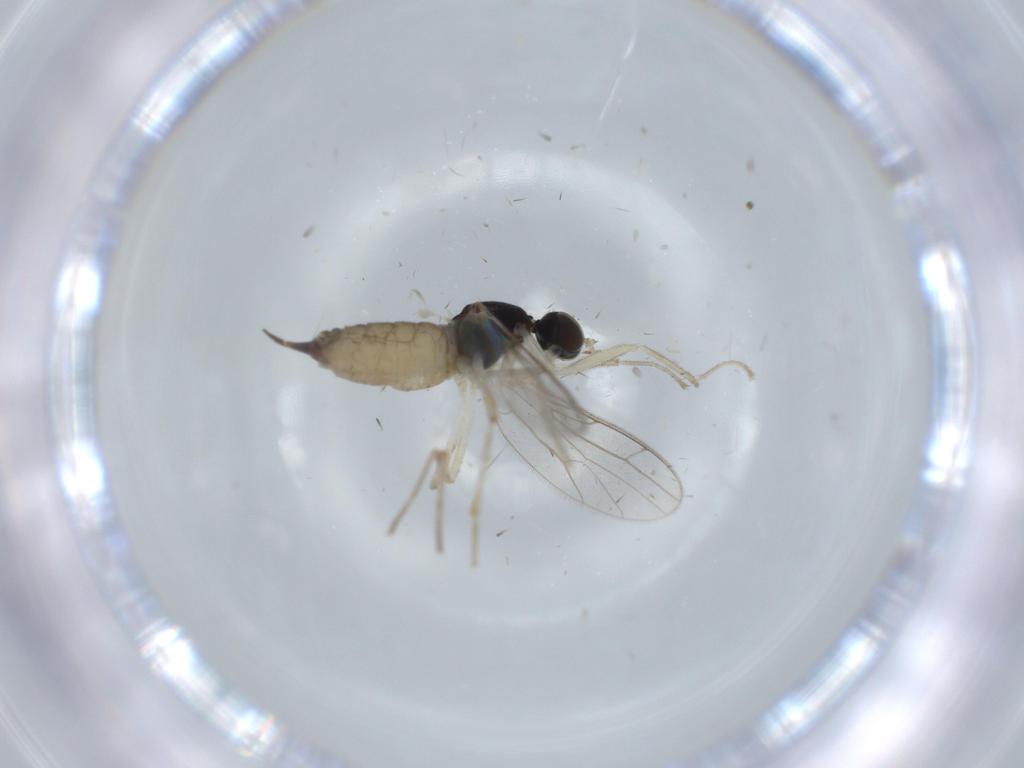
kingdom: Animalia
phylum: Arthropoda
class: Insecta
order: Diptera
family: Empididae
